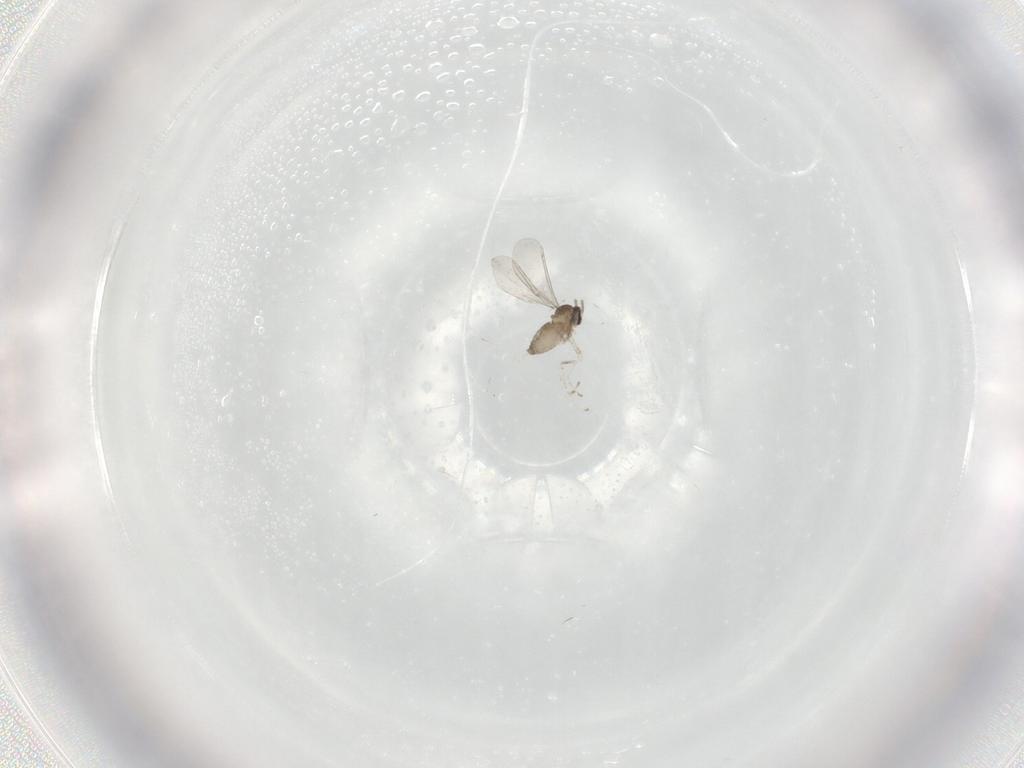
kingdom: Animalia
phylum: Arthropoda
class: Insecta
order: Diptera
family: Cecidomyiidae
